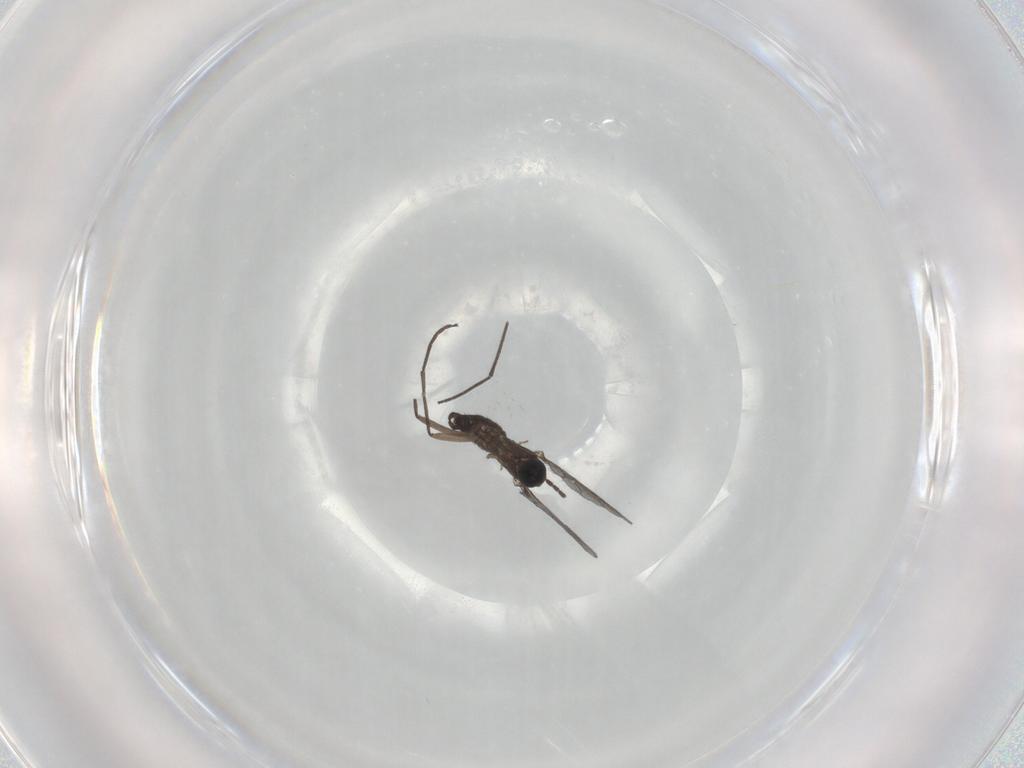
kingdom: Animalia
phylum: Arthropoda
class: Insecta
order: Diptera
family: Sciaridae
